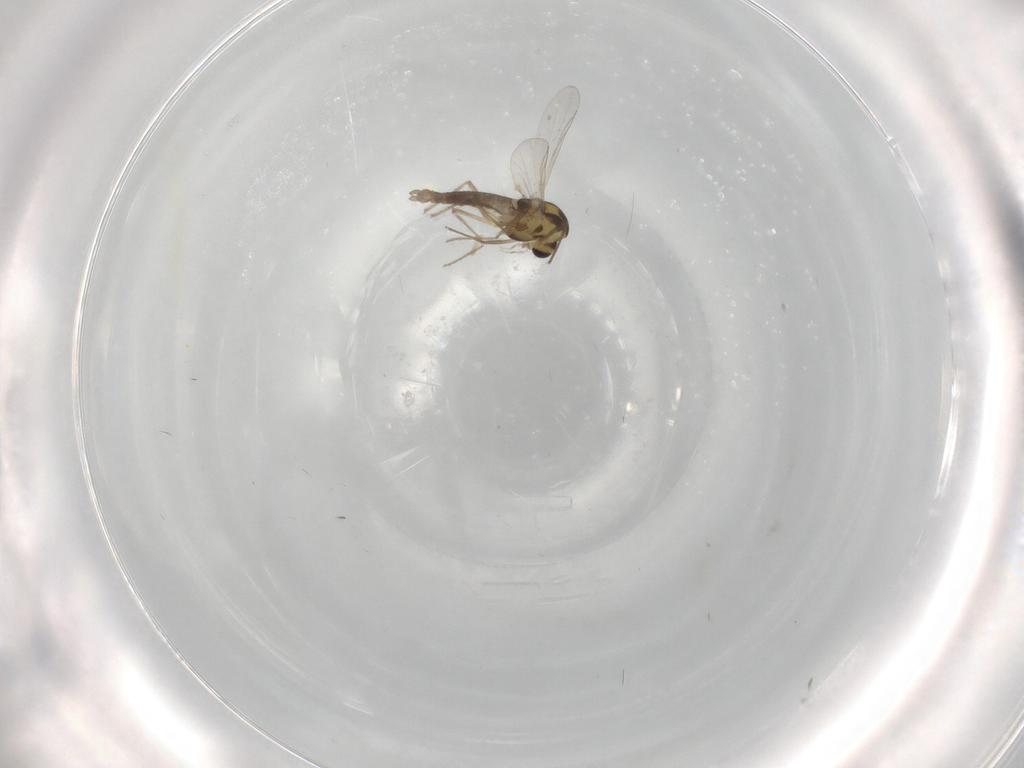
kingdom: Animalia
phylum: Arthropoda
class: Insecta
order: Diptera
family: Chironomidae
